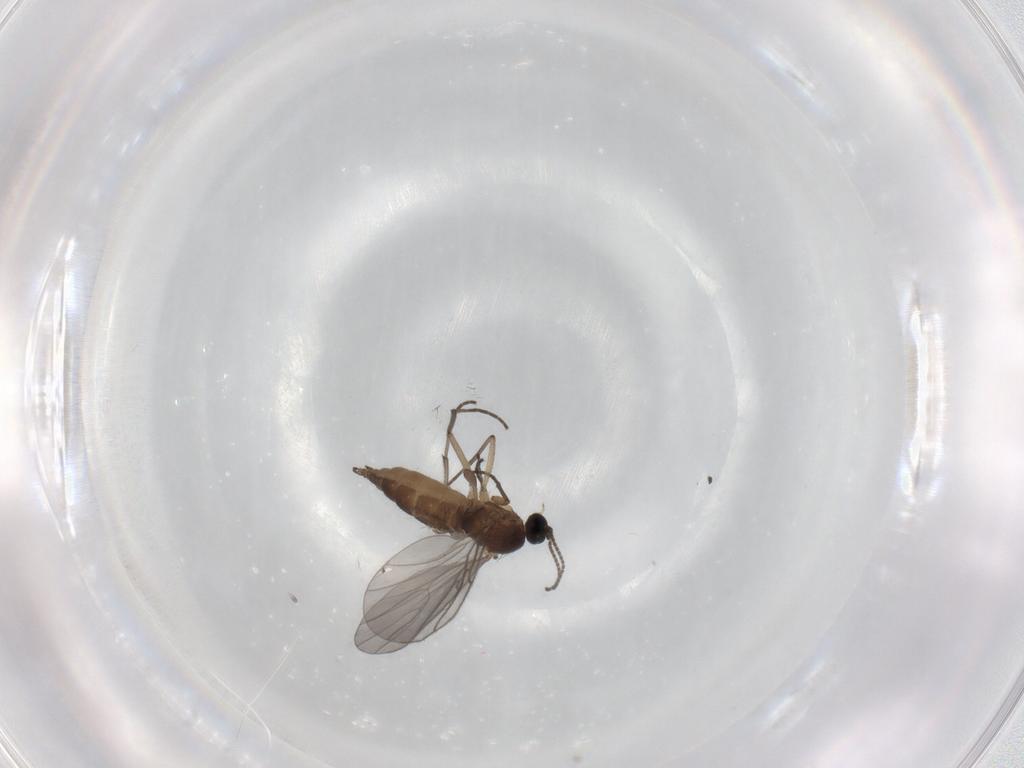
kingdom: Animalia
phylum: Arthropoda
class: Insecta
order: Diptera
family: Sciaridae
